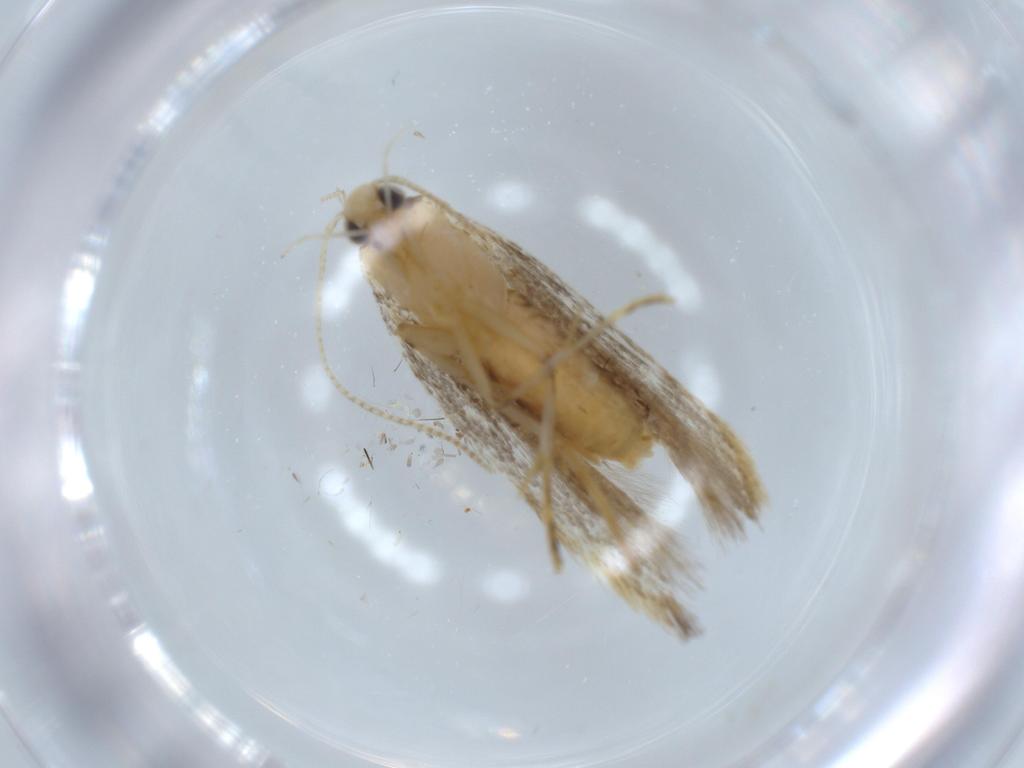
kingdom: Animalia
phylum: Arthropoda
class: Insecta
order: Lepidoptera
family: Autostichidae
